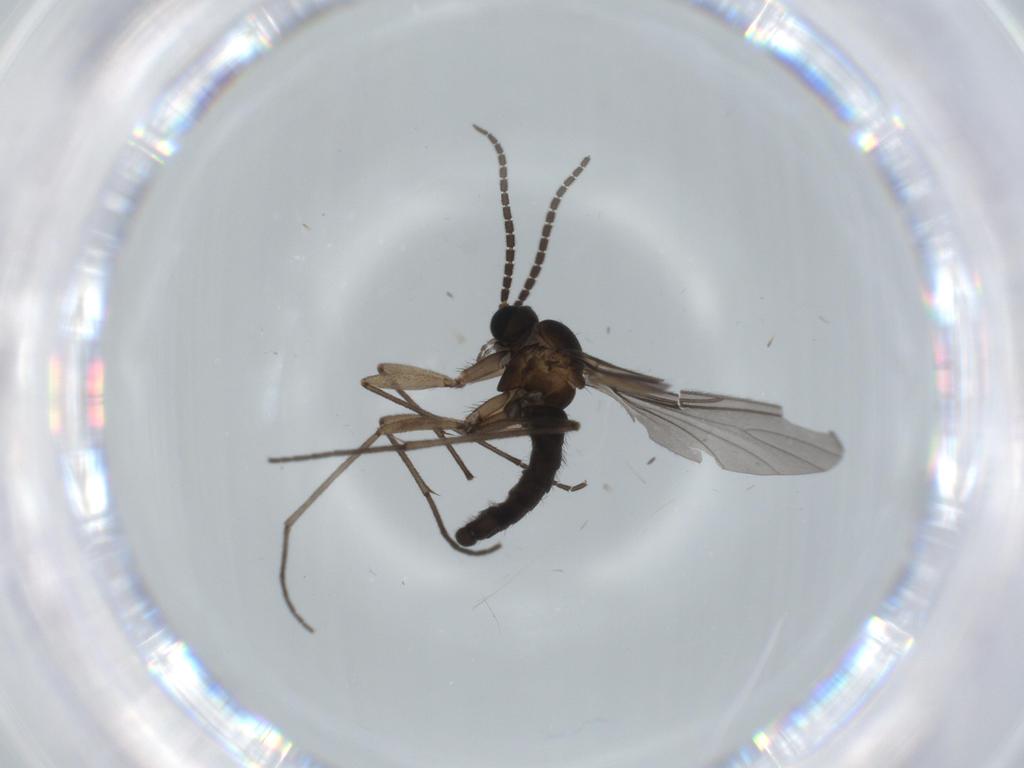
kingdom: Animalia
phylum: Arthropoda
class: Insecta
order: Diptera
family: Sciaridae
